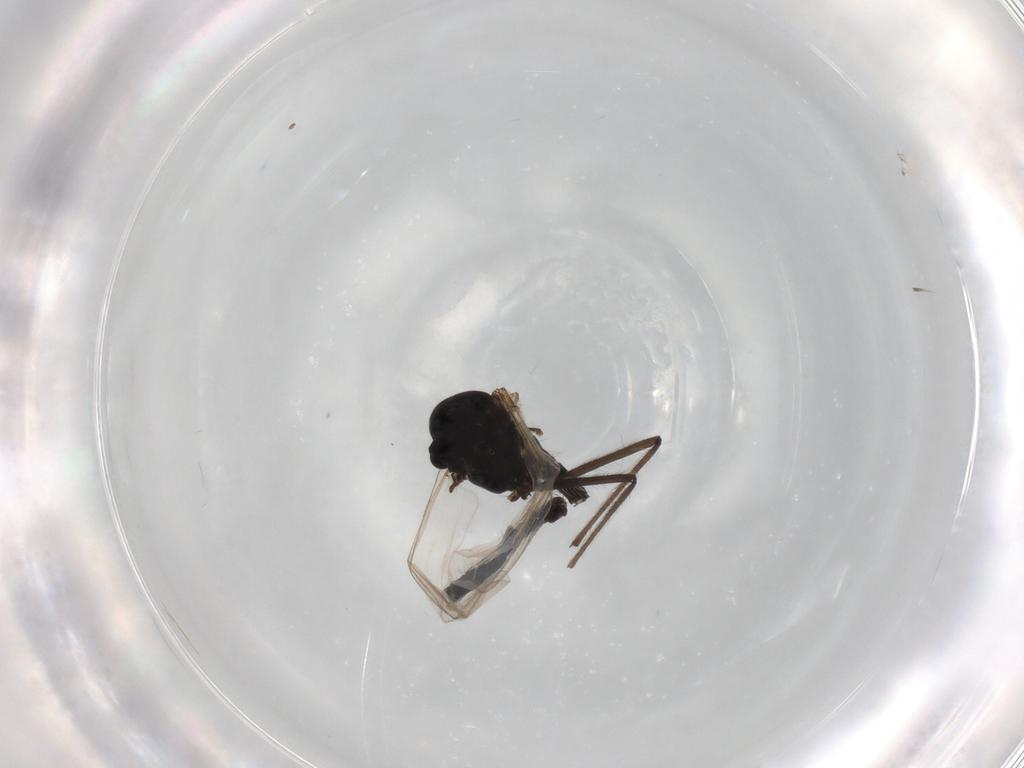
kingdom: Animalia
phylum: Arthropoda
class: Insecta
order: Diptera
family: Chironomidae
